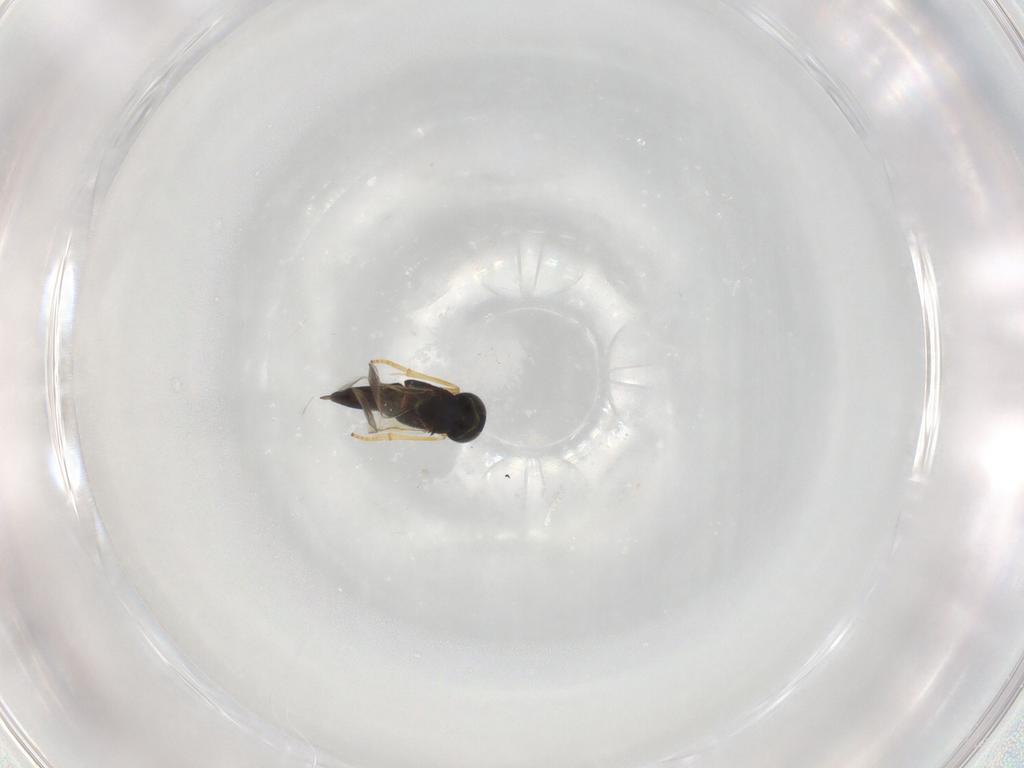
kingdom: Animalia
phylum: Arthropoda
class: Insecta
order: Hymenoptera
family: Encyrtidae
